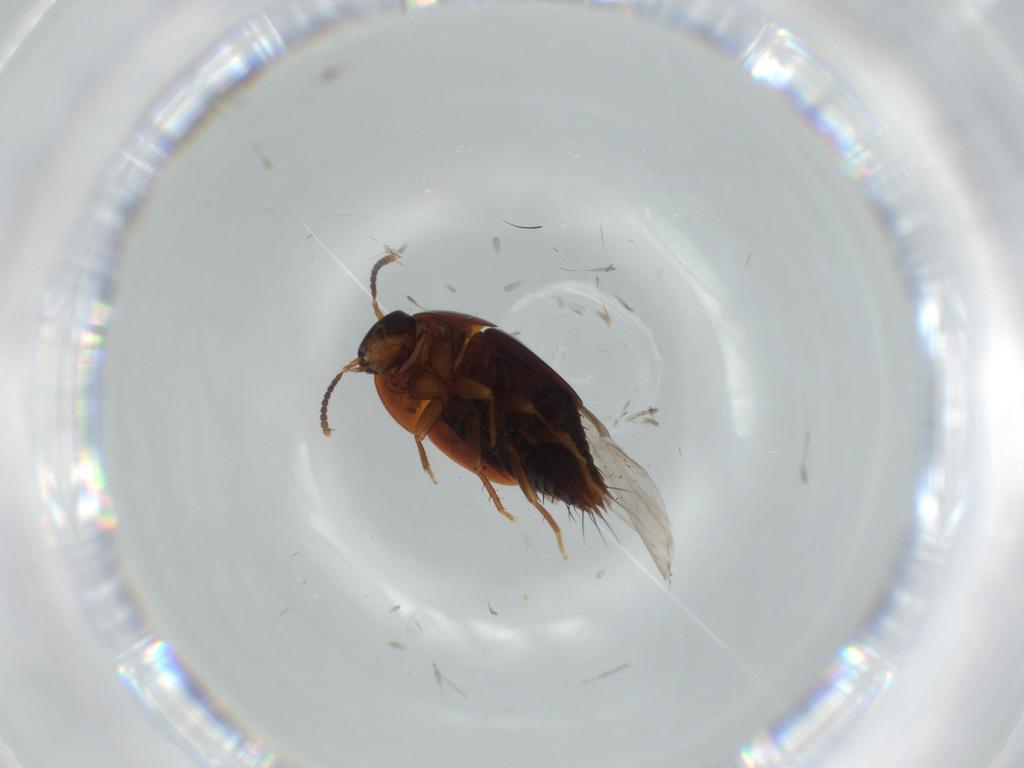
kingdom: Animalia
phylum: Arthropoda
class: Insecta
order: Coleoptera
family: Staphylinidae
